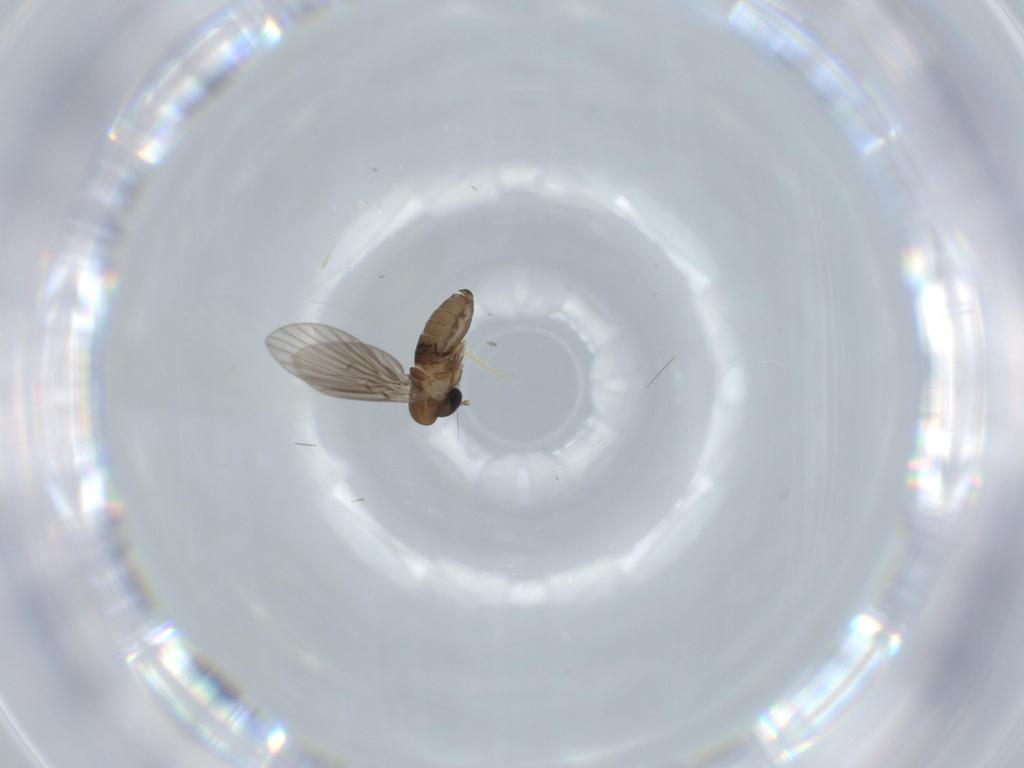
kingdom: Animalia
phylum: Arthropoda
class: Insecta
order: Diptera
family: Psychodidae
